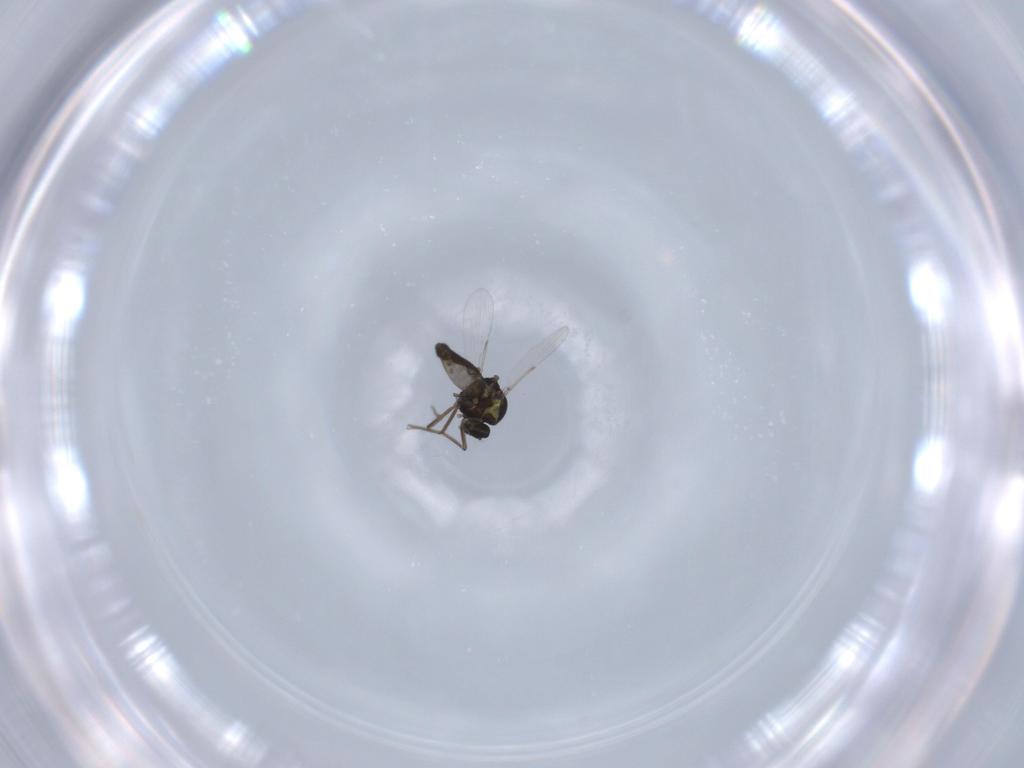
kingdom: Animalia
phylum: Arthropoda
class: Insecta
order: Diptera
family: Ceratopogonidae
